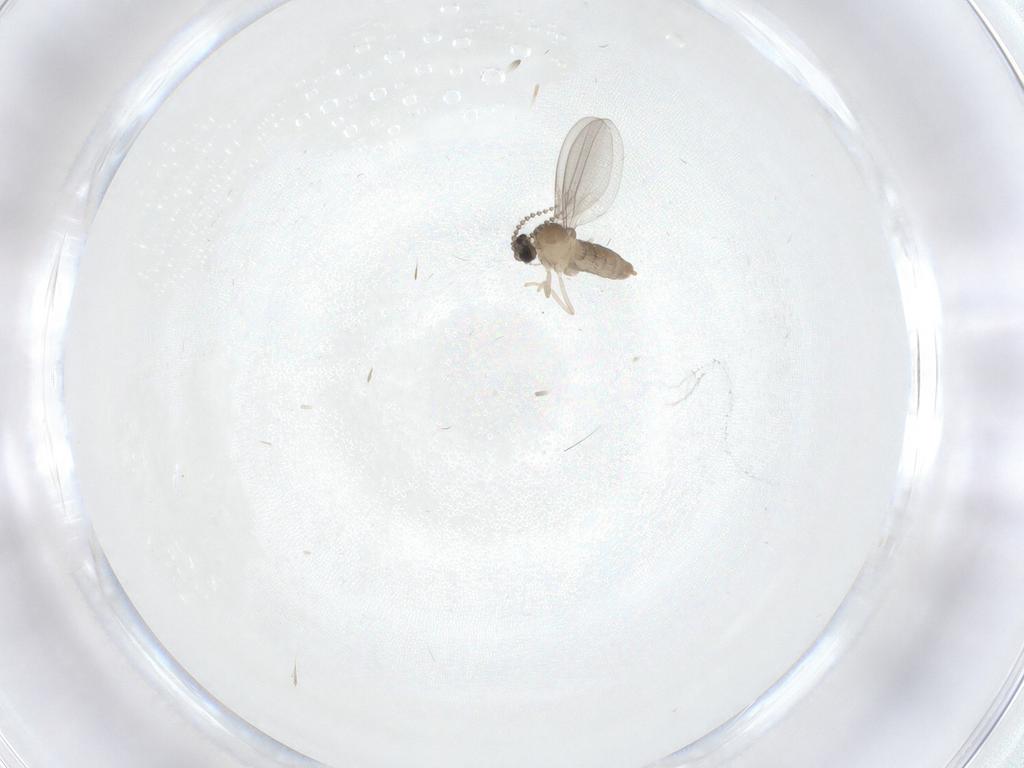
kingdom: Animalia
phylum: Arthropoda
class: Insecta
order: Diptera
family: Cecidomyiidae
